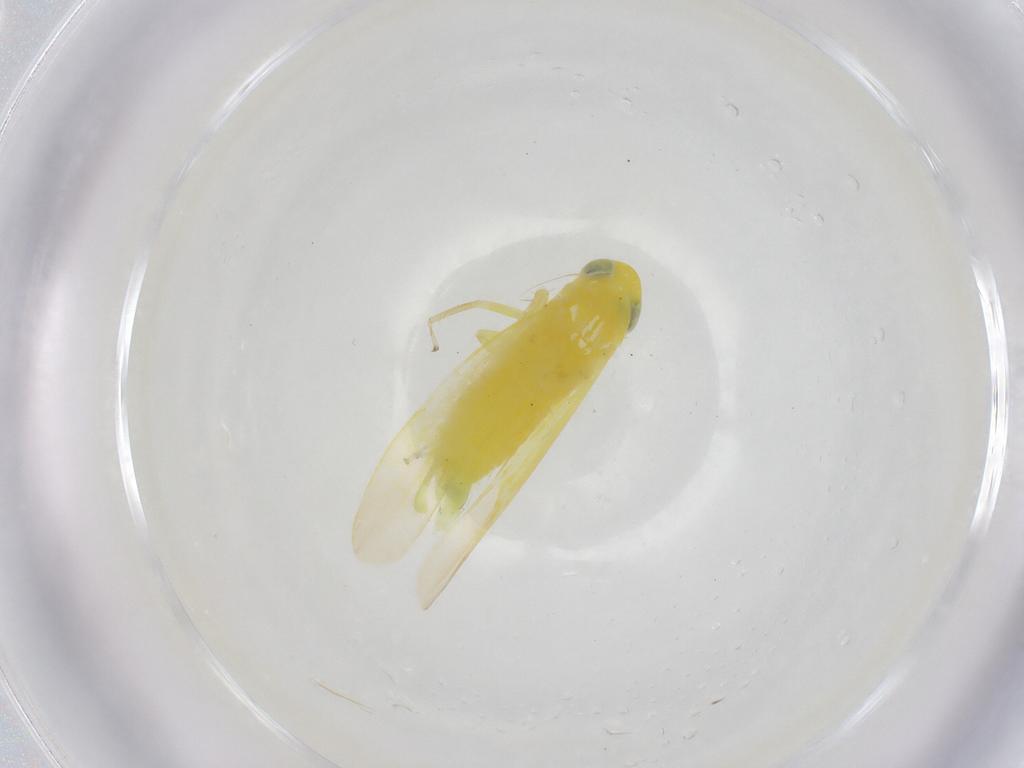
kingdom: Animalia
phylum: Arthropoda
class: Insecta
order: Hemiptera
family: Cicadellidae
